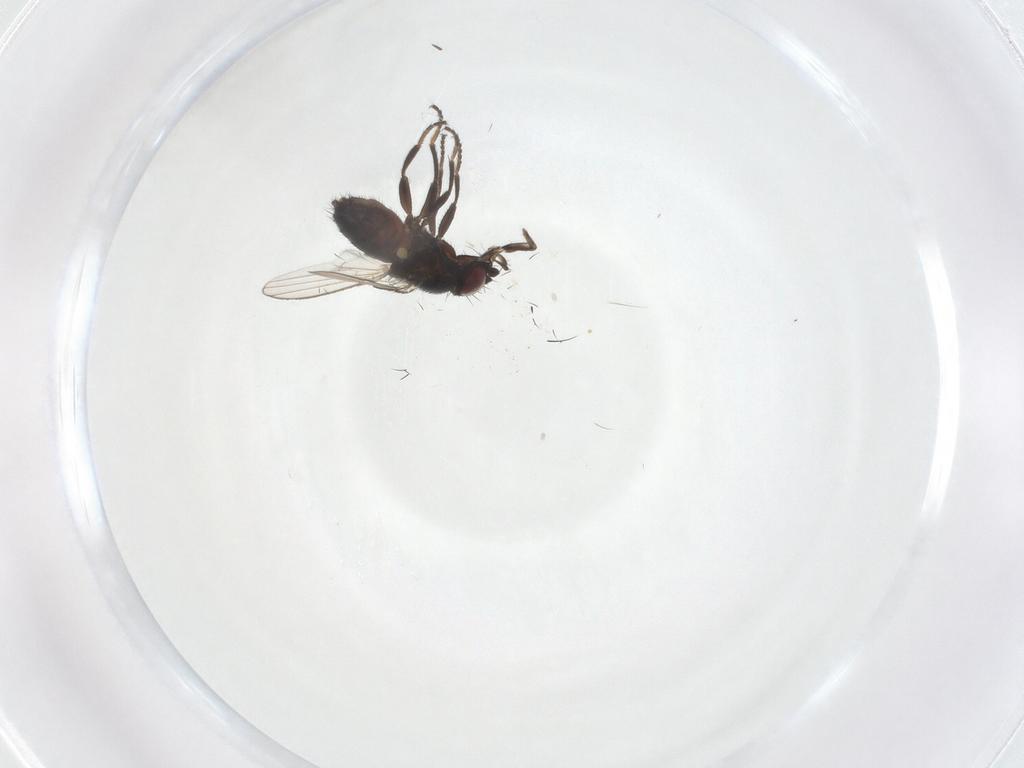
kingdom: Animalia
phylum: Arthropoda
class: Insecta
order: Diptera
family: Milichiidae
